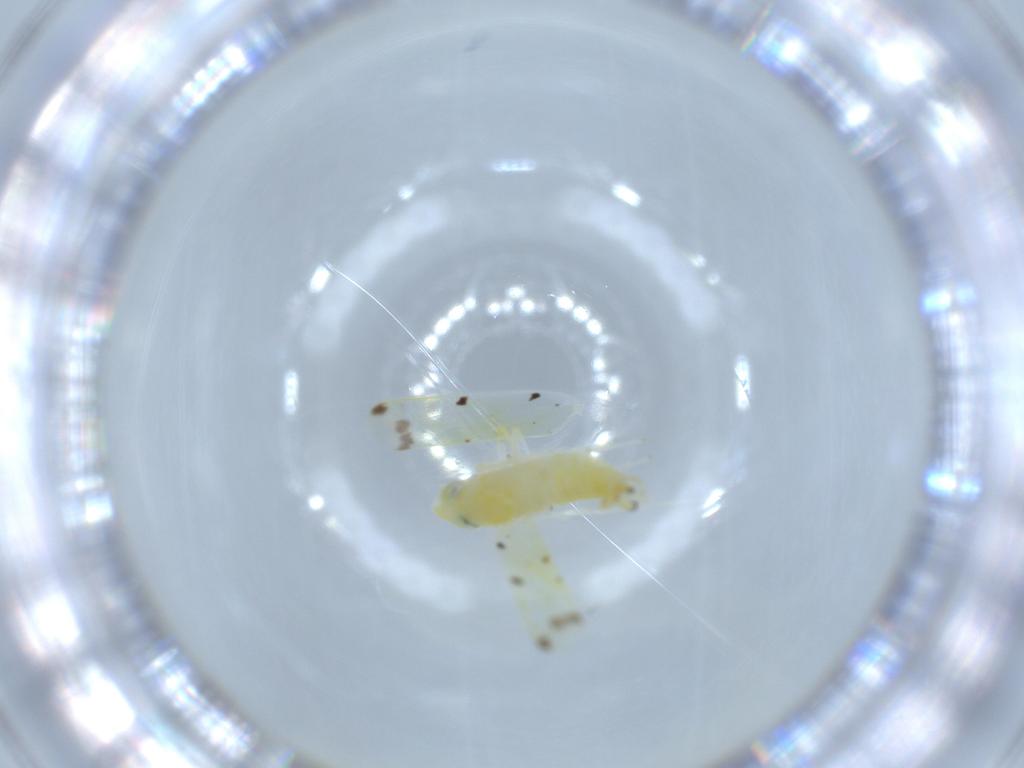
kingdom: Animalia
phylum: Arthropoda
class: Insecta
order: Hemiptera
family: Cicadellidae
